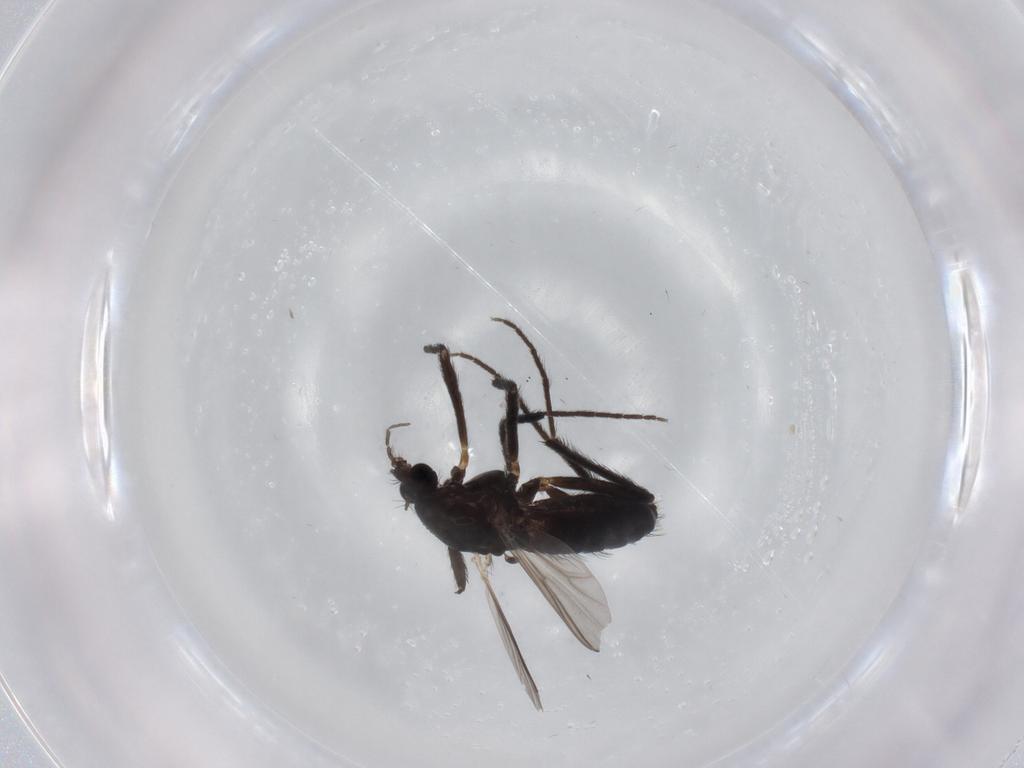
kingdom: Animalia
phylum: Arthropoda
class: Insecta
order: Diptera
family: Chironomidae
